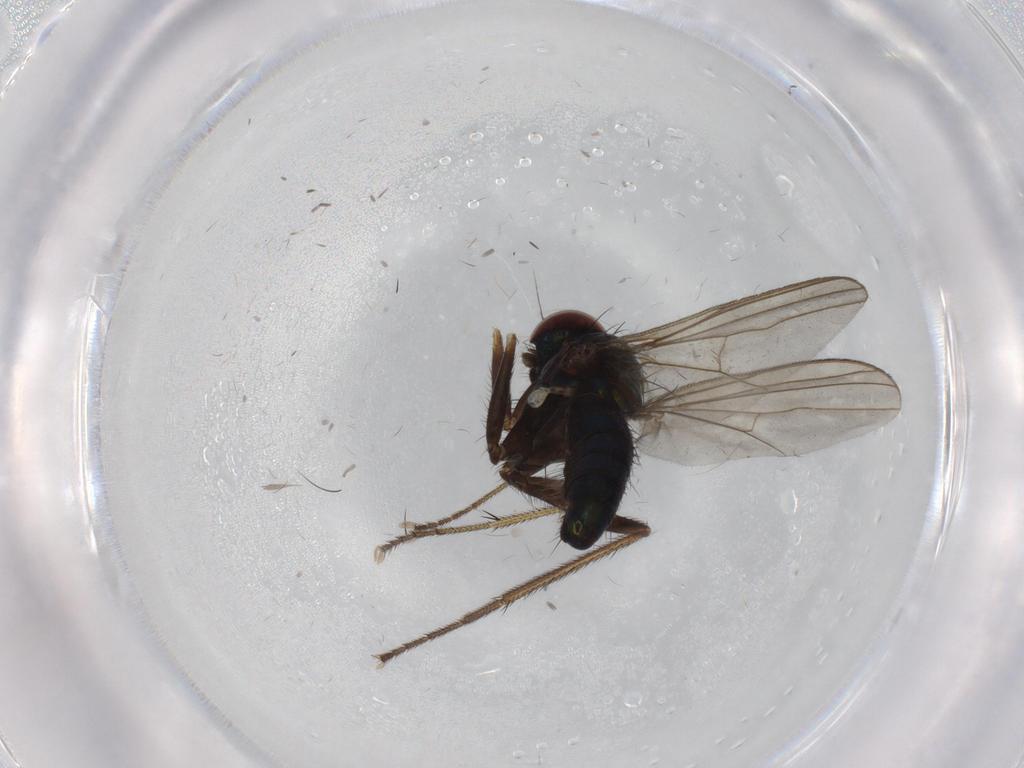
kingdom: Animalia
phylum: Arthropoda
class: Insecta
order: Diptera
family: Dolichopodidae
